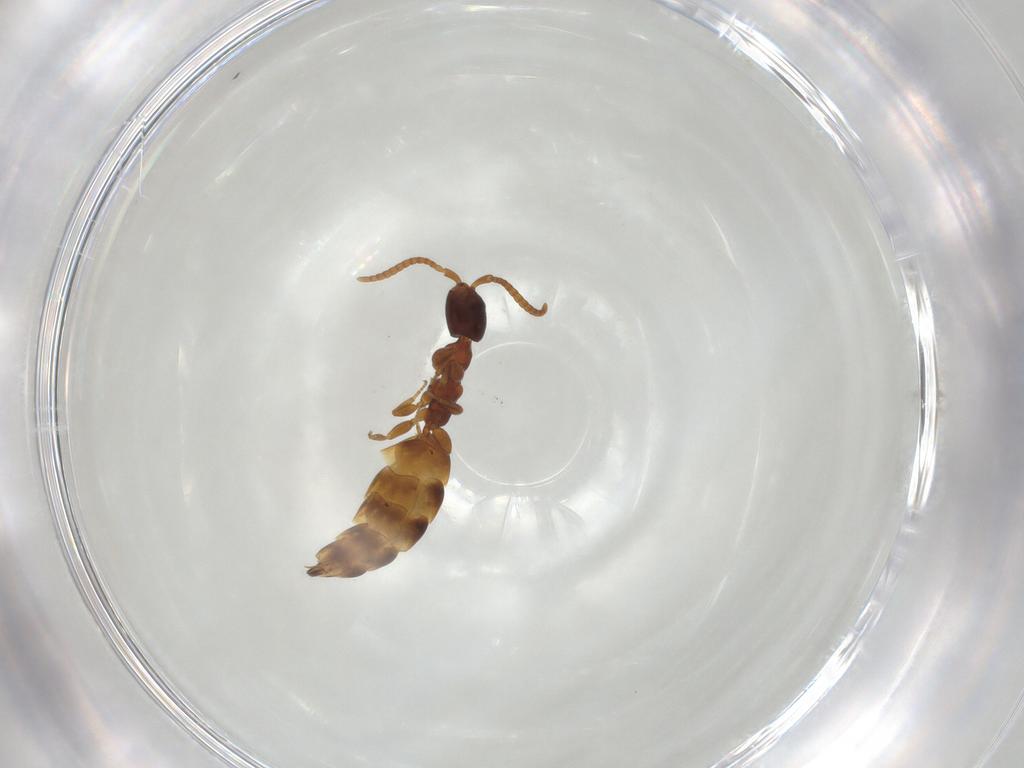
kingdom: Animalia
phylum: Arthropoda
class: Insecta
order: Hymenoptera
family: Bethylidae
